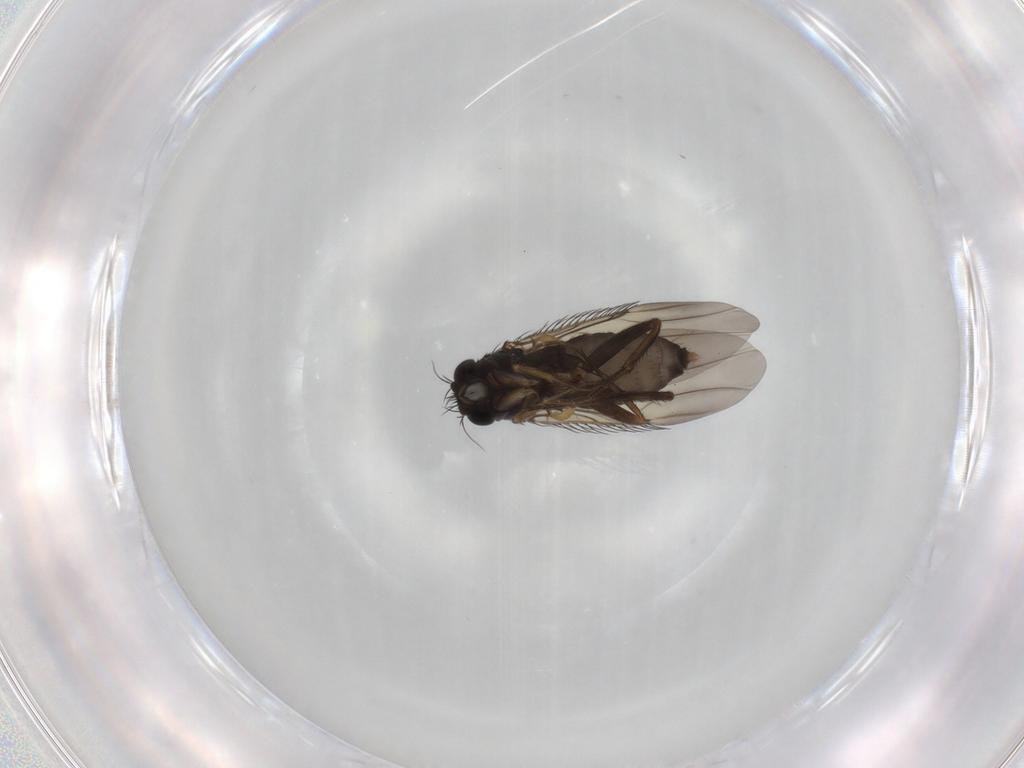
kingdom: Animalia
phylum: Arthropoda
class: Insecta
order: Diptera
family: Phoridae
